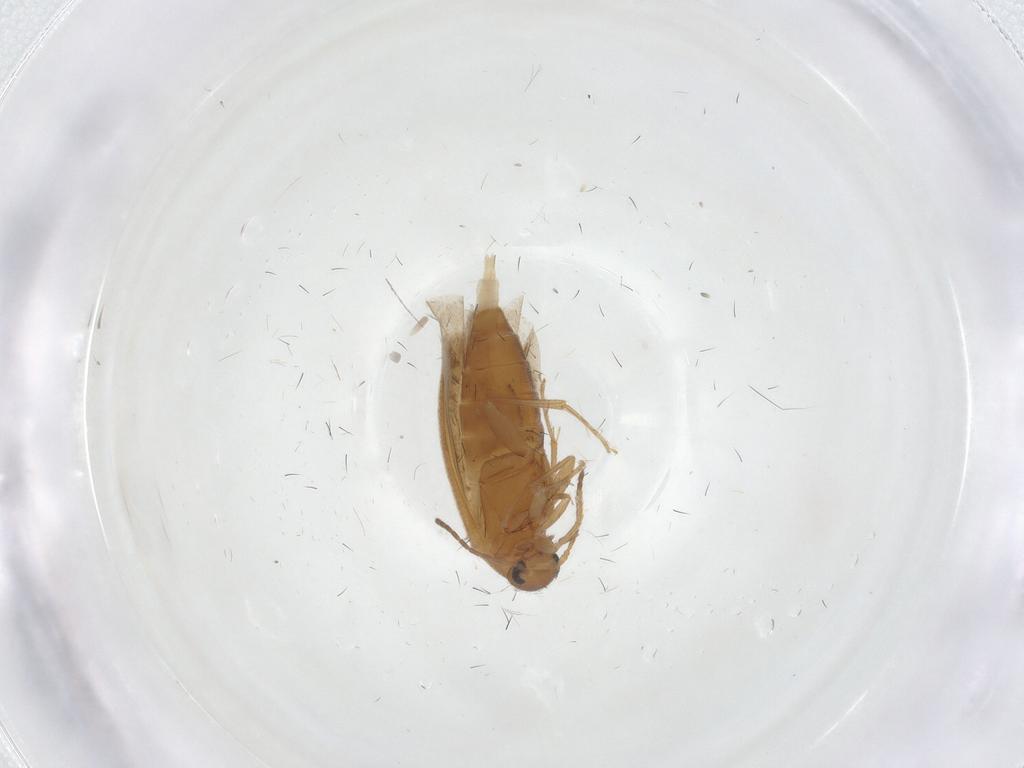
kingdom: Animalia
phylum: Arthropoda
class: Insecta
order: Coleoptera
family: Scraptiidae
